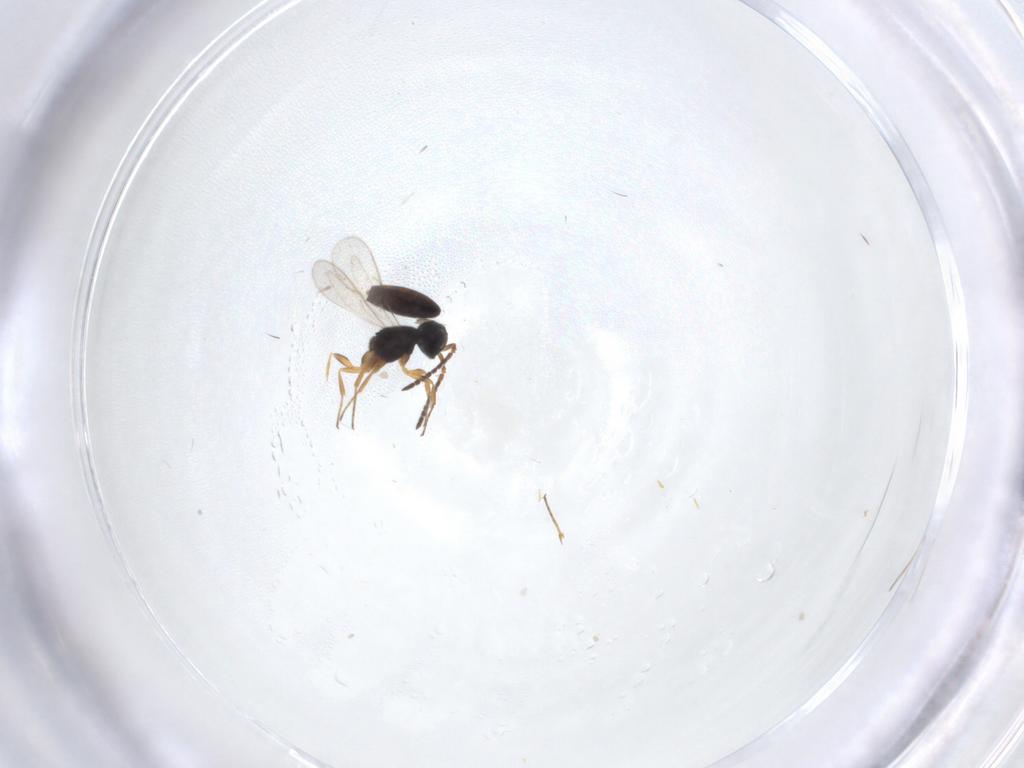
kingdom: Animalia
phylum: Arthropoda
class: Insecta
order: Hymenoptera
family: Scelionidae
